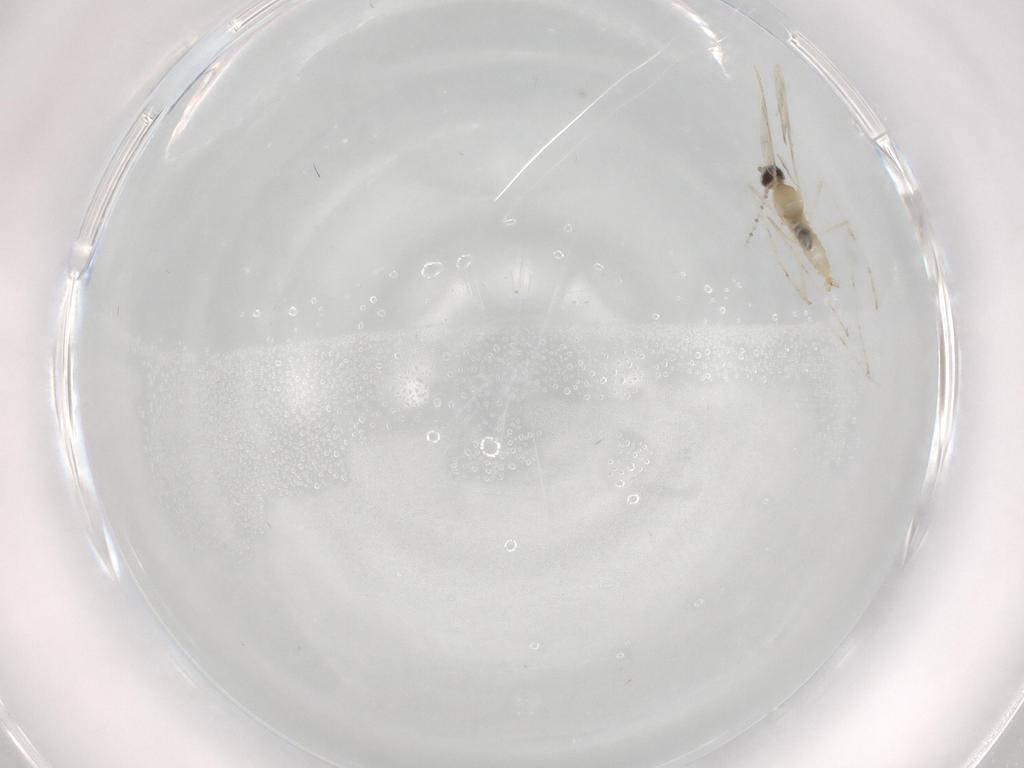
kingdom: Animalia
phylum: Arthropoda
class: Insecta
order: Diptera
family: Cecidomyiidae
